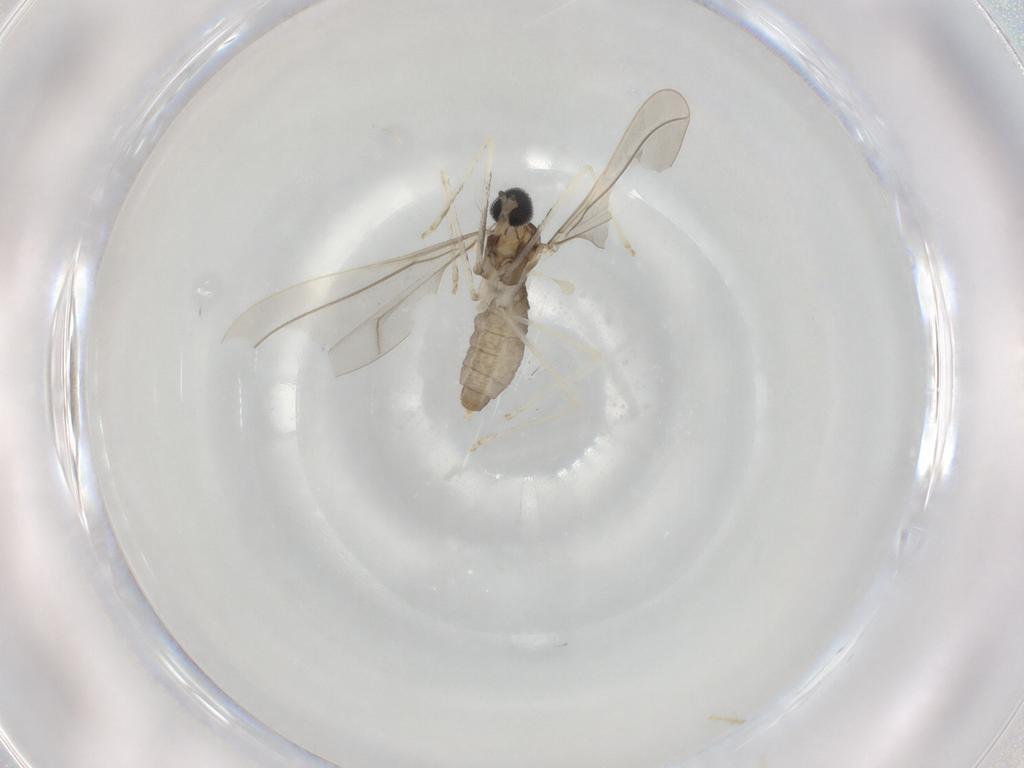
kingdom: Animalia
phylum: Arthropoda
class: Insecta
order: Diptera
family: Cecidomyiidae
